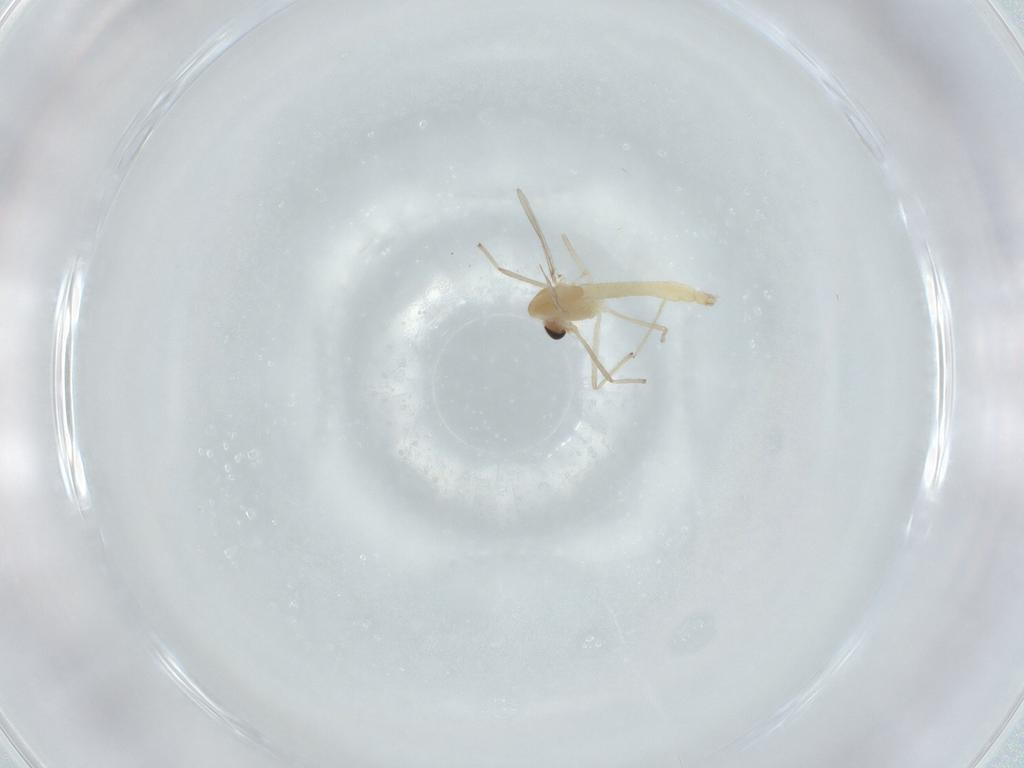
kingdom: Animalia
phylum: Arthropoda
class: Insecta
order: Diptera
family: Chironomidae
